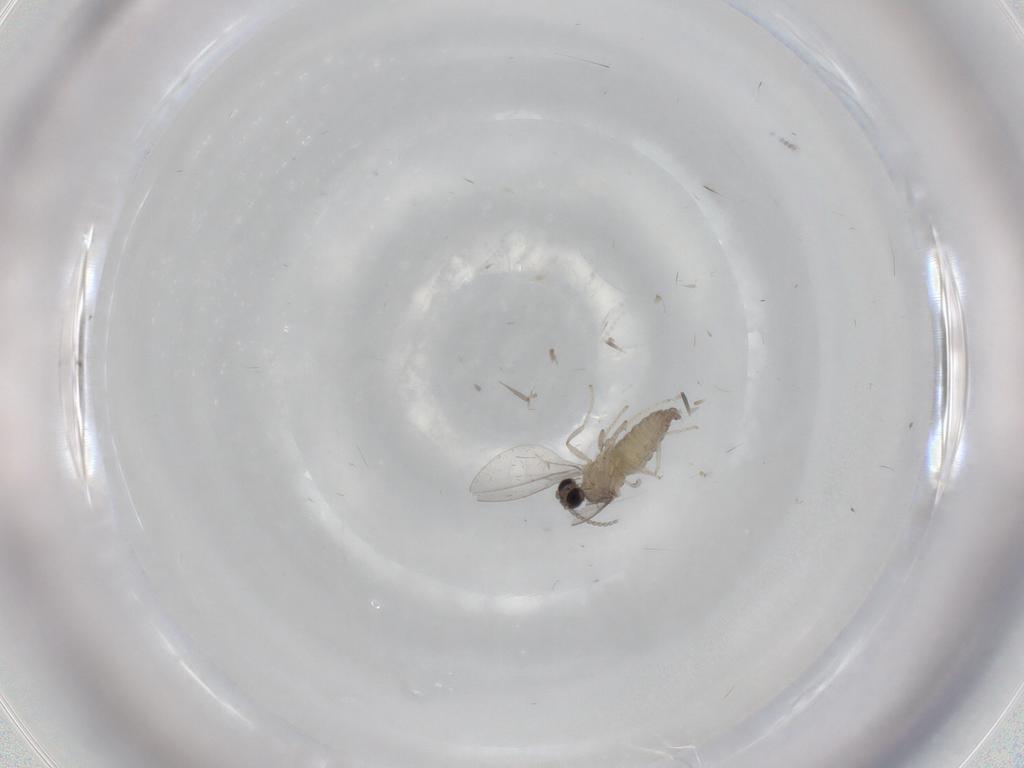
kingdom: Animalia
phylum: Arthropoda
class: Insecta
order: Diptera
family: Cecidomyiidae
